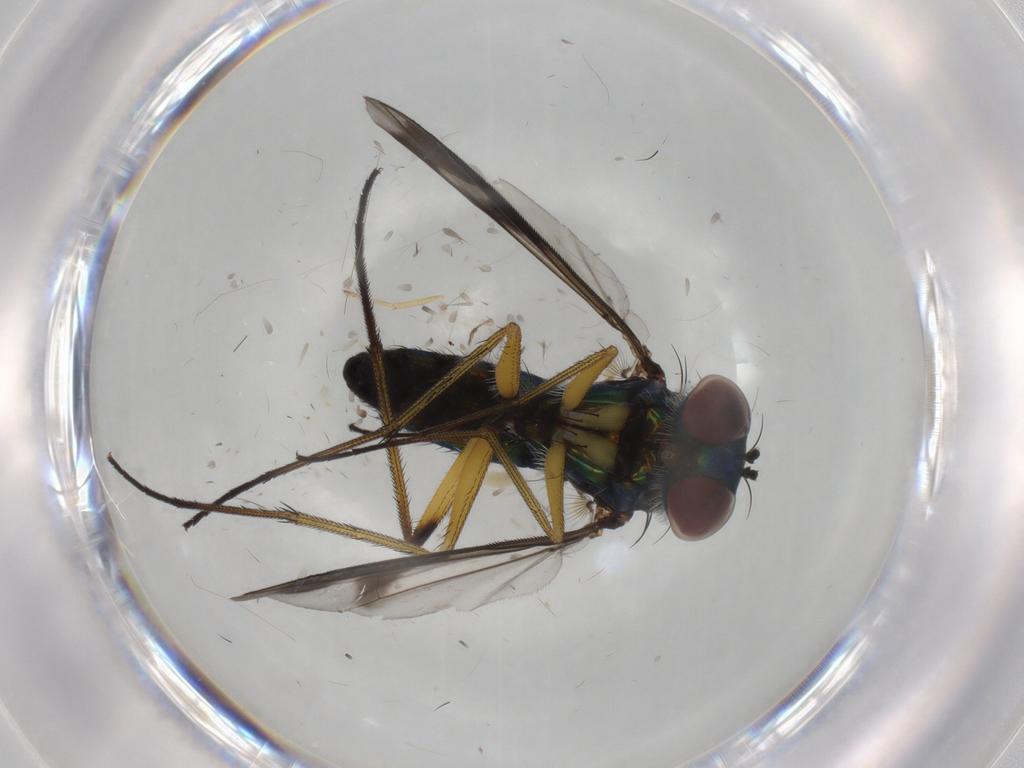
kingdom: Animalia
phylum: Arthropoda
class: Insecta
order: Diptera
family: Dolichopodidae
